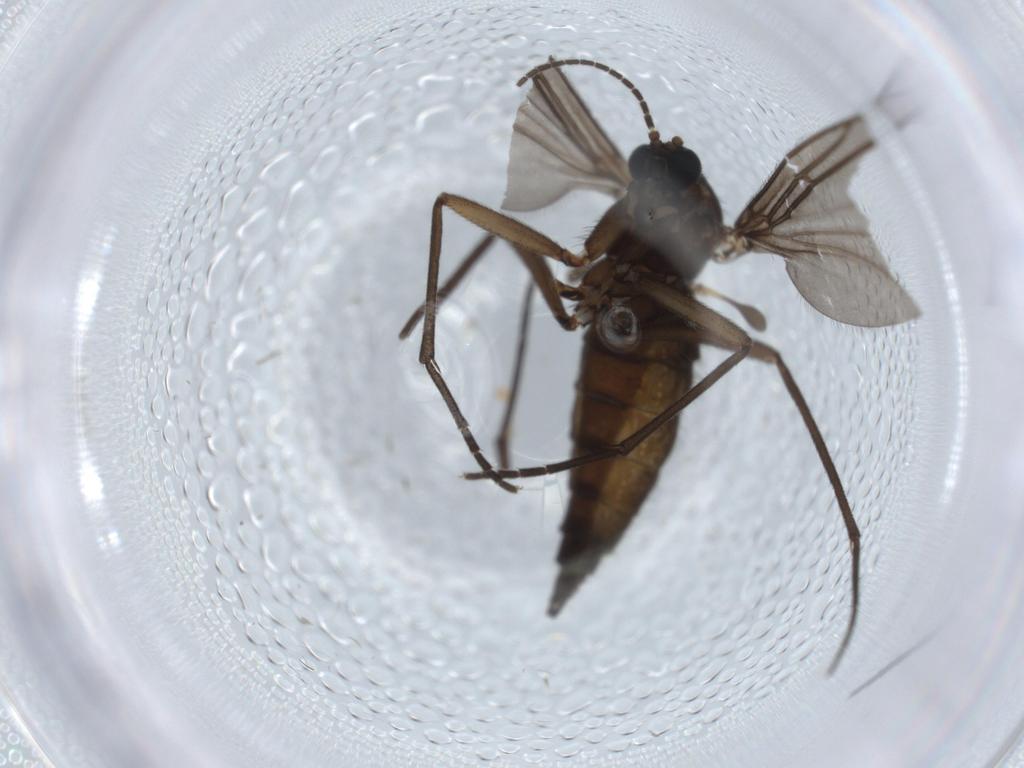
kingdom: Animalia
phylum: Arthropoda
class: Insecta
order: Diptera
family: Sciaridae
